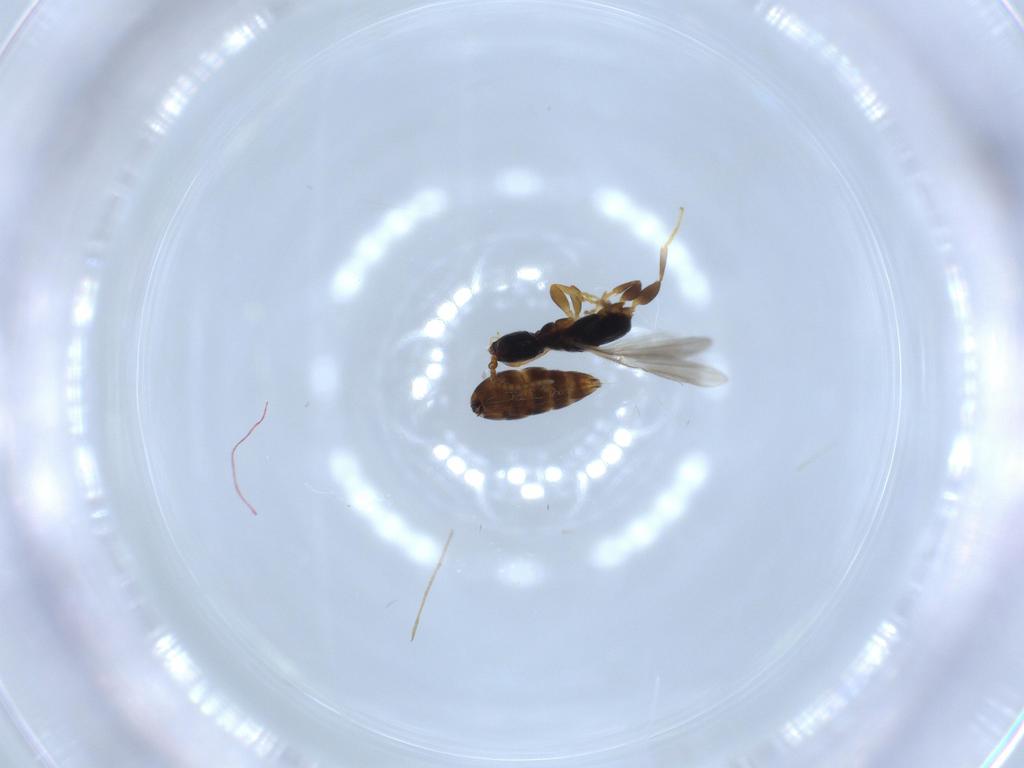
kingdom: Animalia
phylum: Arthropoda
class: Insecta
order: Hymenoptera
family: Bethylidae
